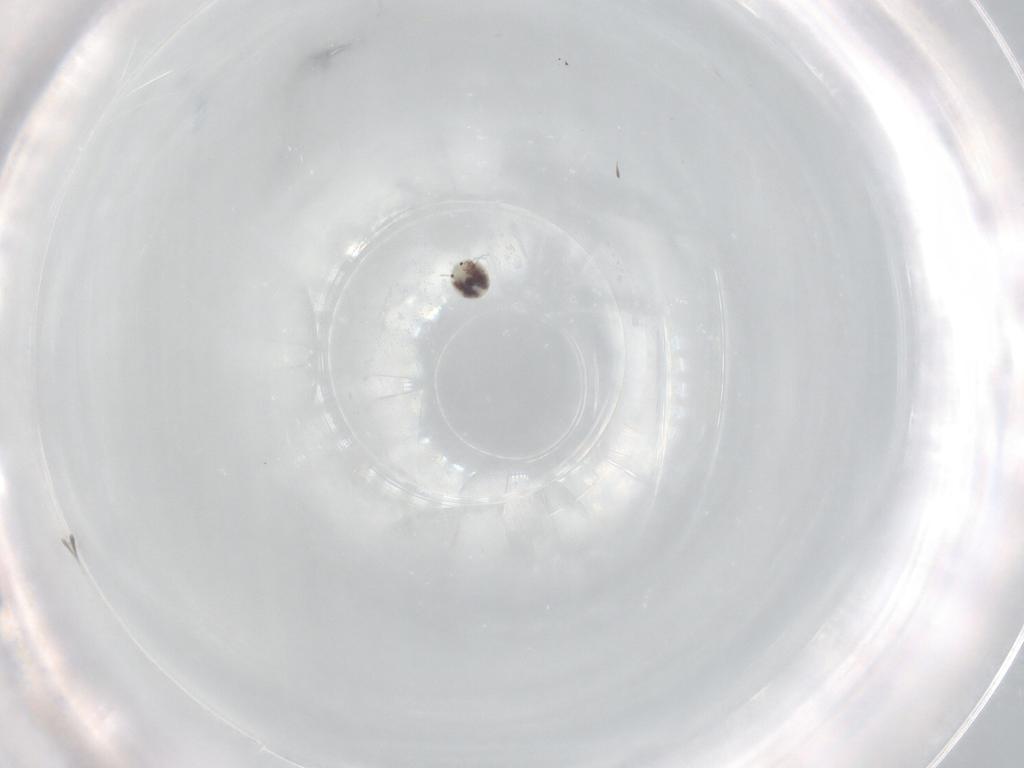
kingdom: Animalia
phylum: Arthropoda
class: Arachnida
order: Trombidiformes
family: Unionicolidae
